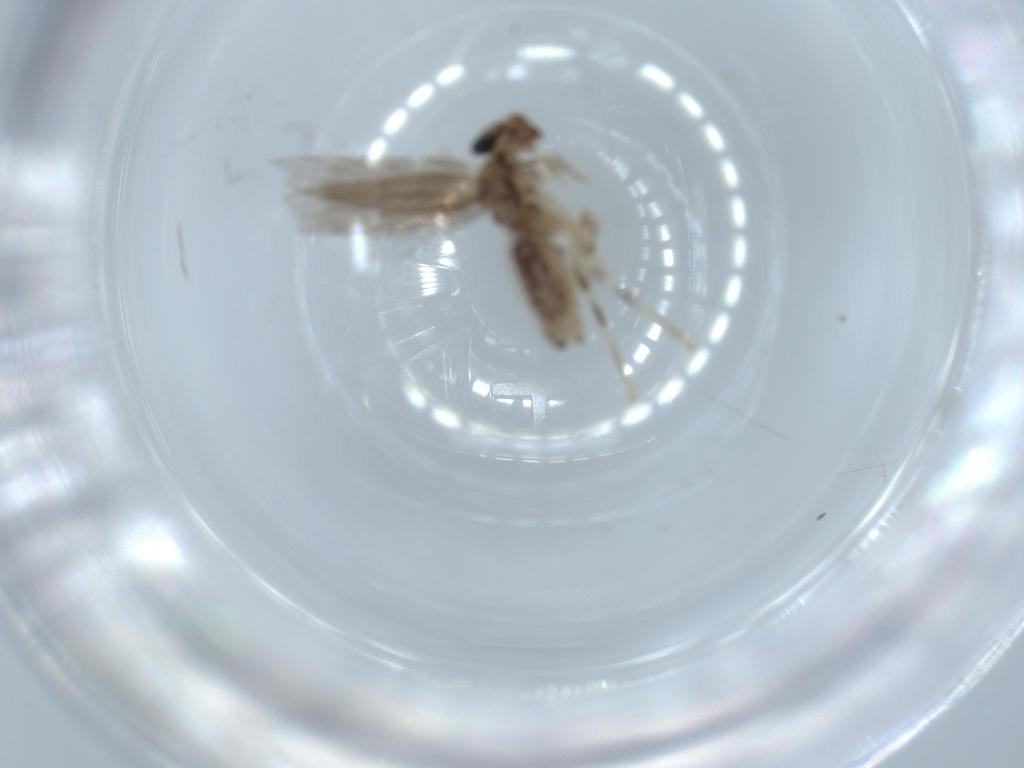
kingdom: Animalia
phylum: Arthropoda
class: Insecta
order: Psocodea
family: Lepidopsocidae
